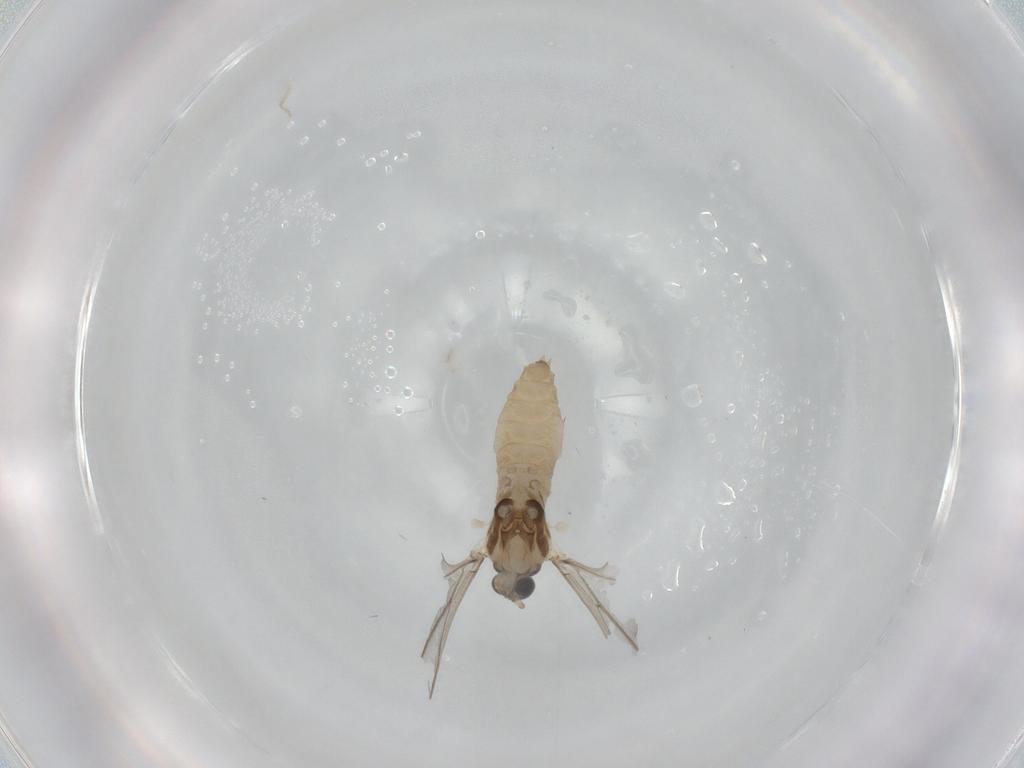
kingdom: Animalia
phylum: Arthropoda
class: Insecta
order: Diptera
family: Cecidomyiidae
